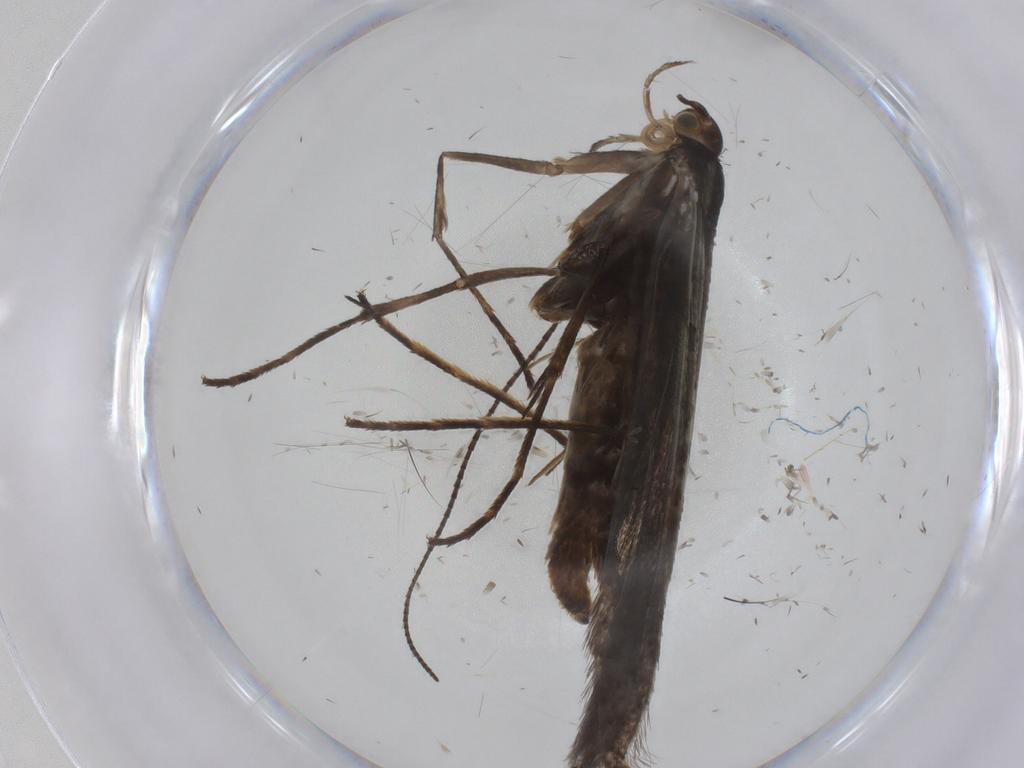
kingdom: Animalia
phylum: Arthropoda
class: Insecta
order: Lepidoptera
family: Gracillariidae
